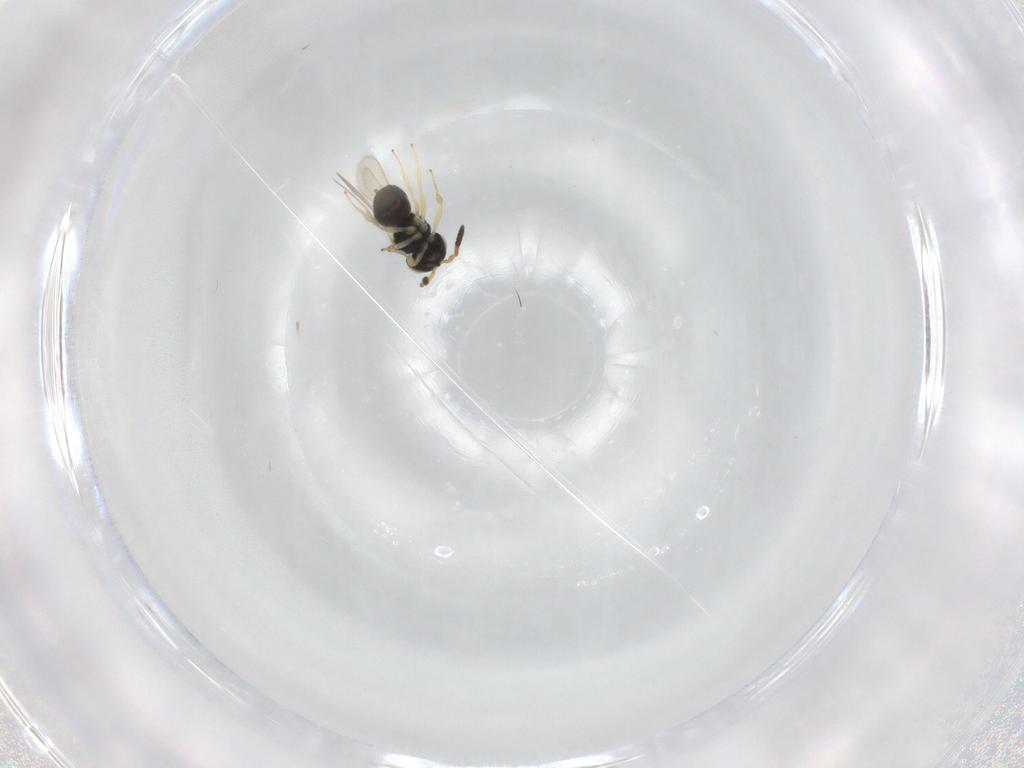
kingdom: Animalia
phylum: Arthropoda
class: Insecta
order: Hymenoptera
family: Scelionidae
